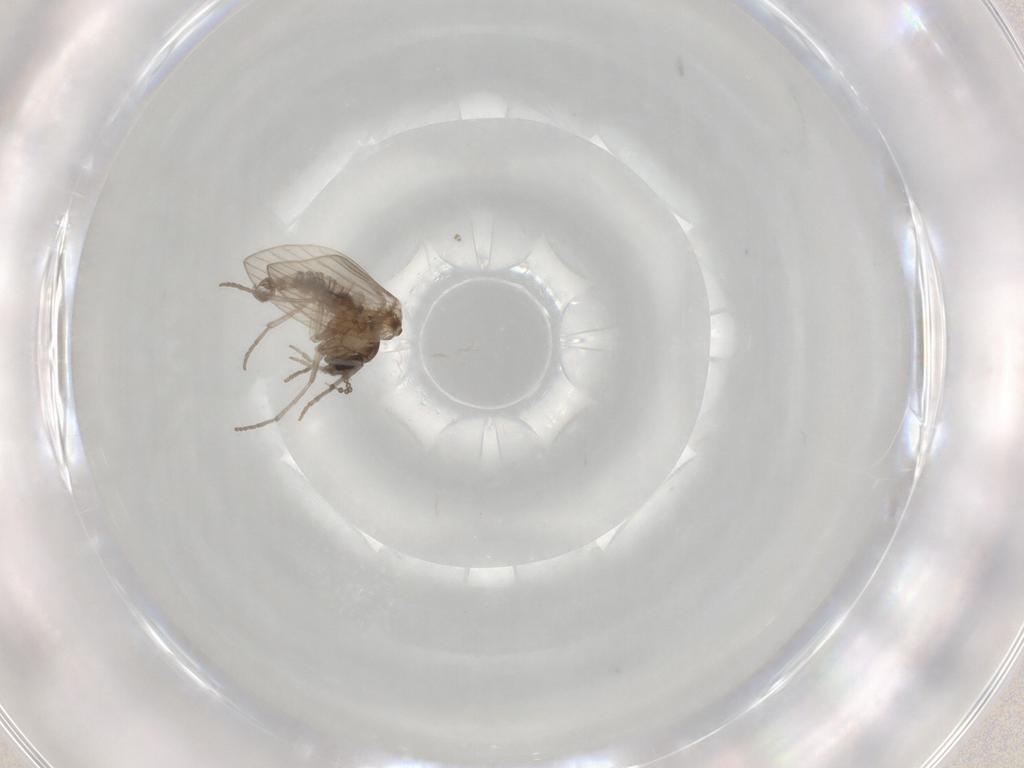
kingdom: Animalia
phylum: Arthropoda
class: Insecta
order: Diptera
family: Psychodidae
